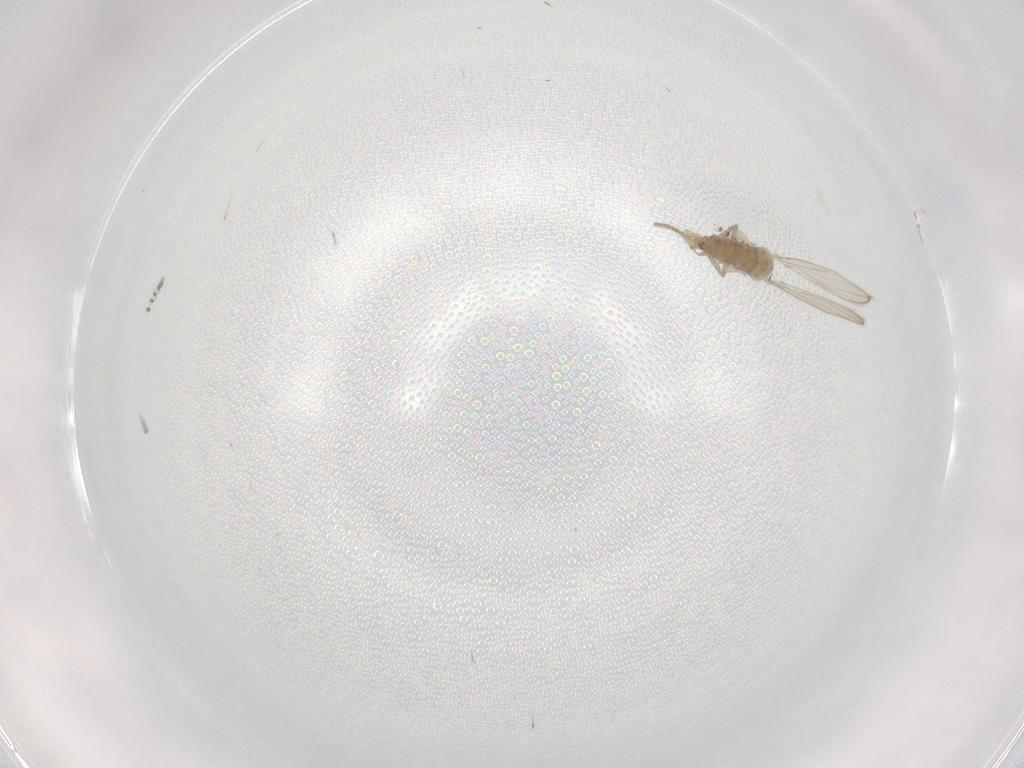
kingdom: Animalia
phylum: Arthropoda
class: Insecta
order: Diptera
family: Psychodidae
